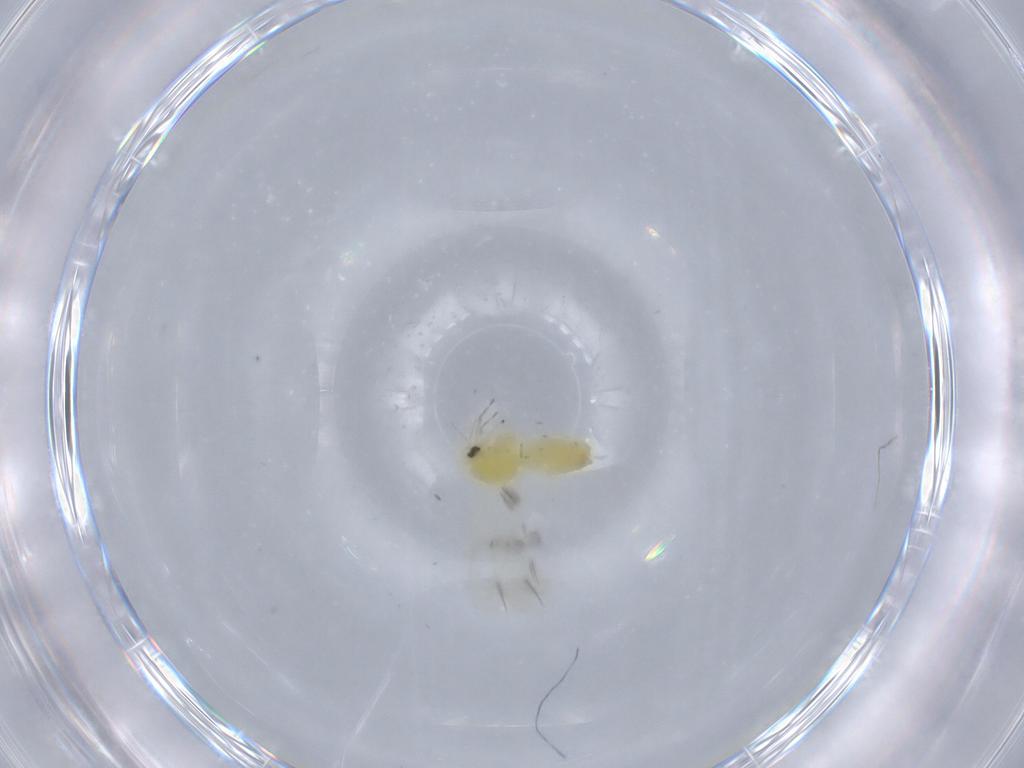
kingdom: Animalia
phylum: Arthropoda
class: Insecta
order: Hemiptera
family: Aleyrodidae
